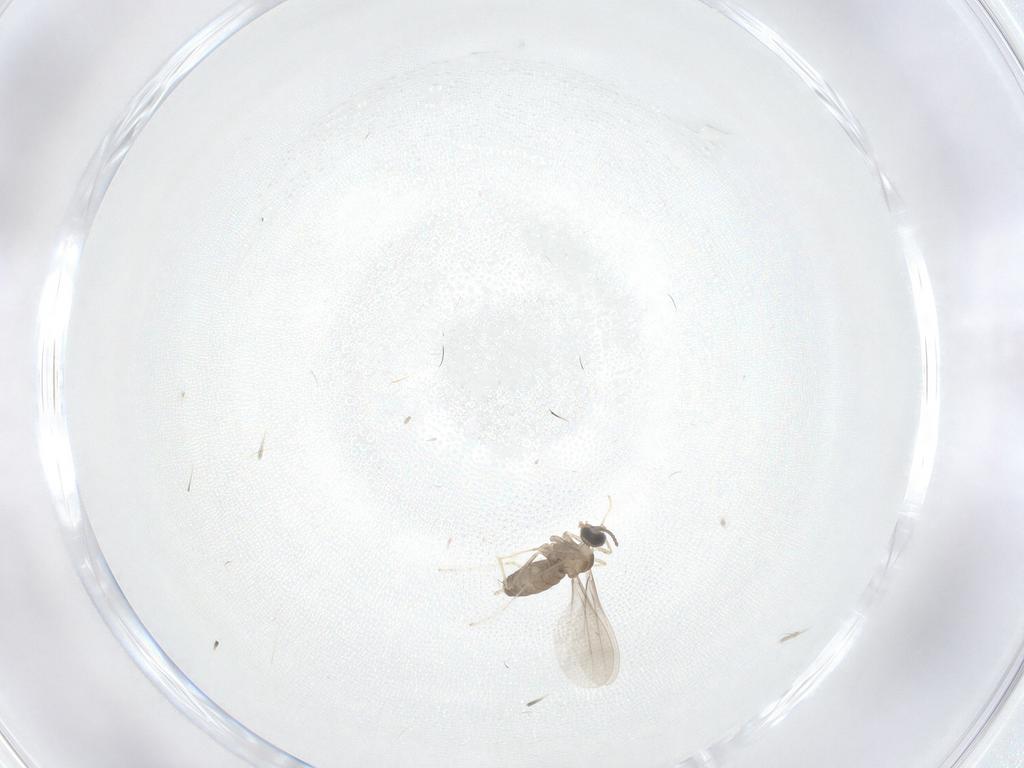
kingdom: Animalia
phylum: Arthropoda
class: Insecta
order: Diptera
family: Cecidomyiidae
